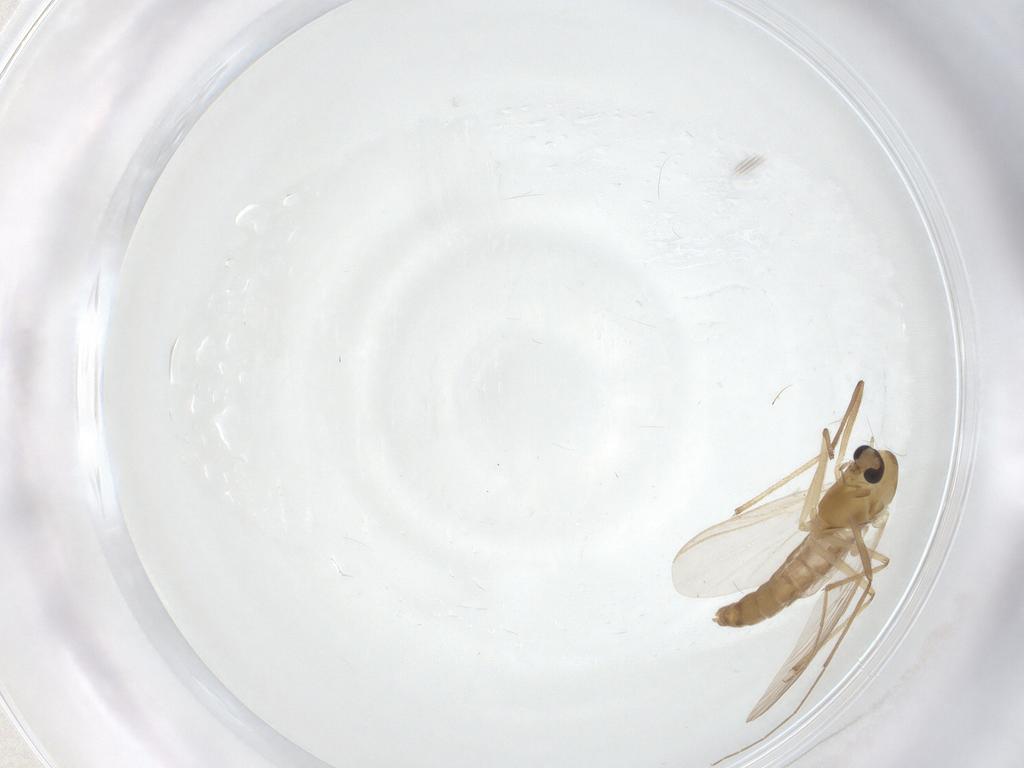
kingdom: Animalia
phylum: Arthropoda
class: Insecta
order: Diptera
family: Chironomidae
